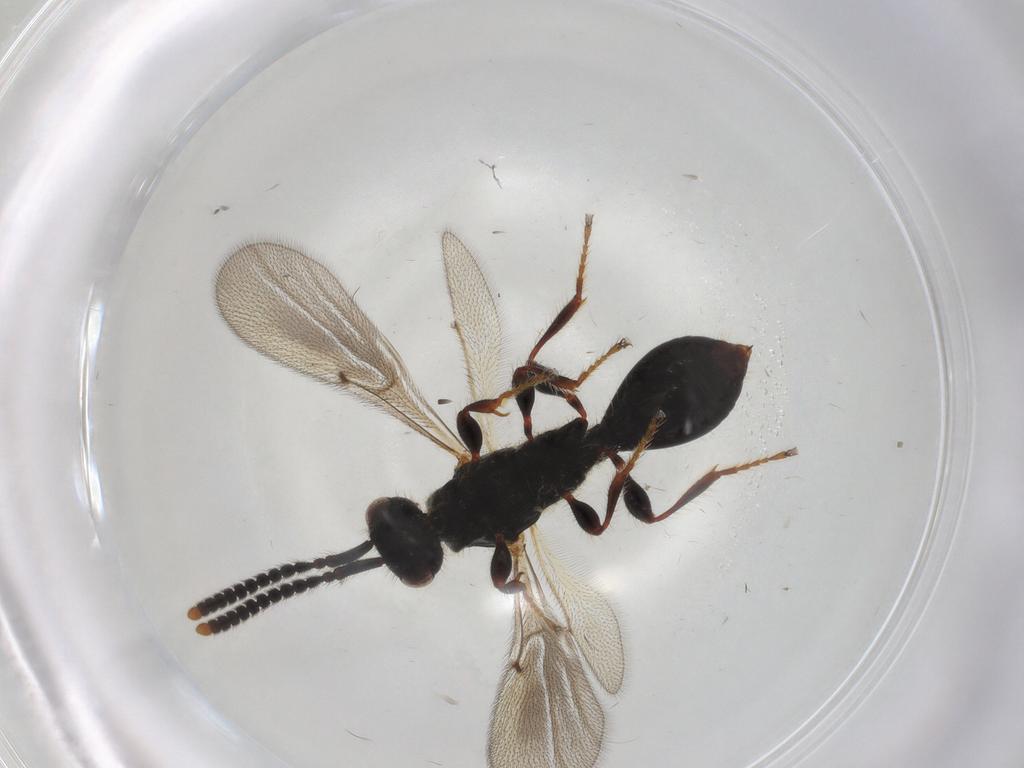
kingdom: Animalia
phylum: Arthropoda
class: Insecta
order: Hymenoptera
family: Diapriidae
